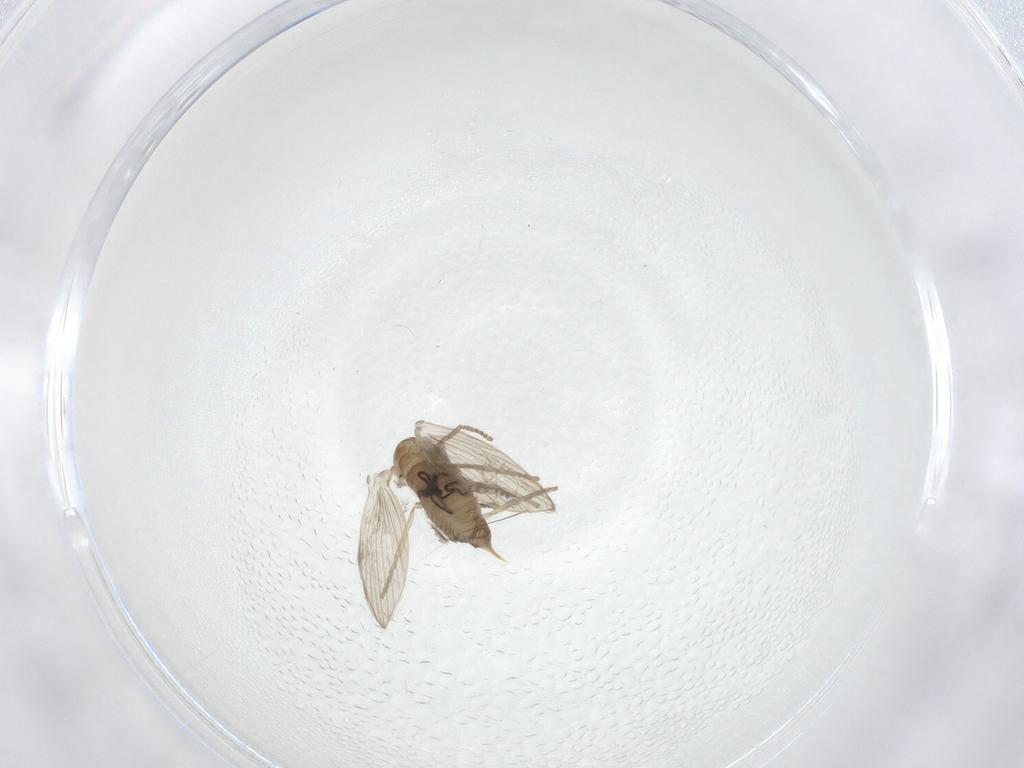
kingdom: Animalia
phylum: Arthropoda
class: Insecta
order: Diptera
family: Psychodidae
